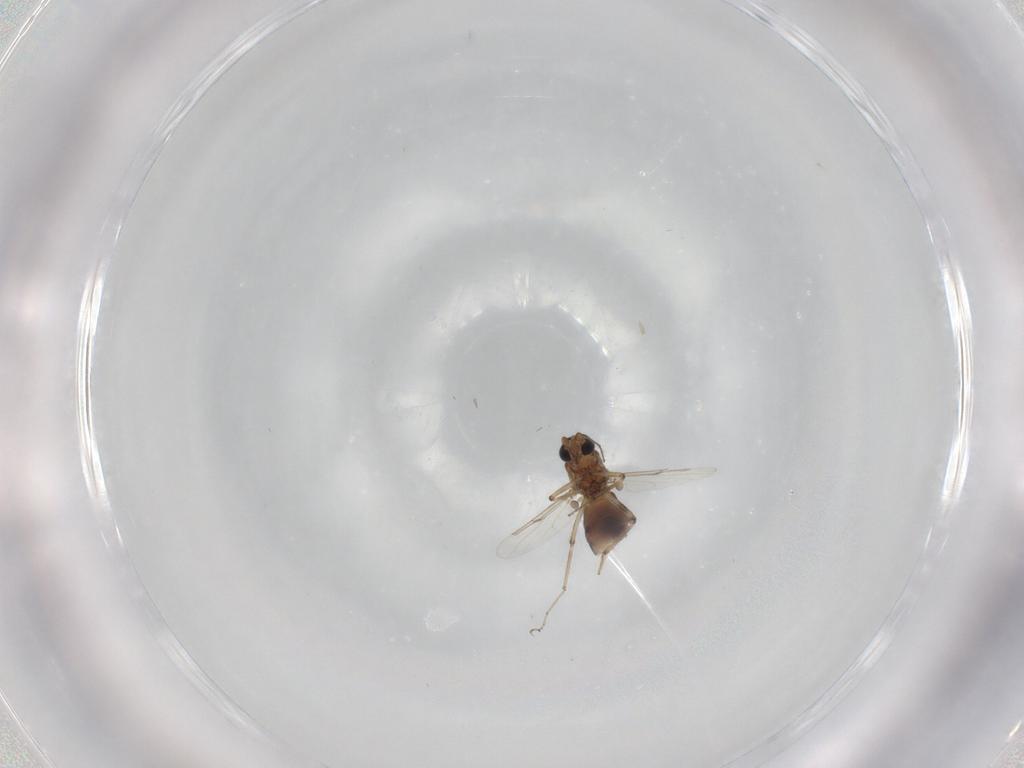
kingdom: Animalia
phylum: Arthropoda
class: Insecta
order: Diptera
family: Ceratopogonidae
